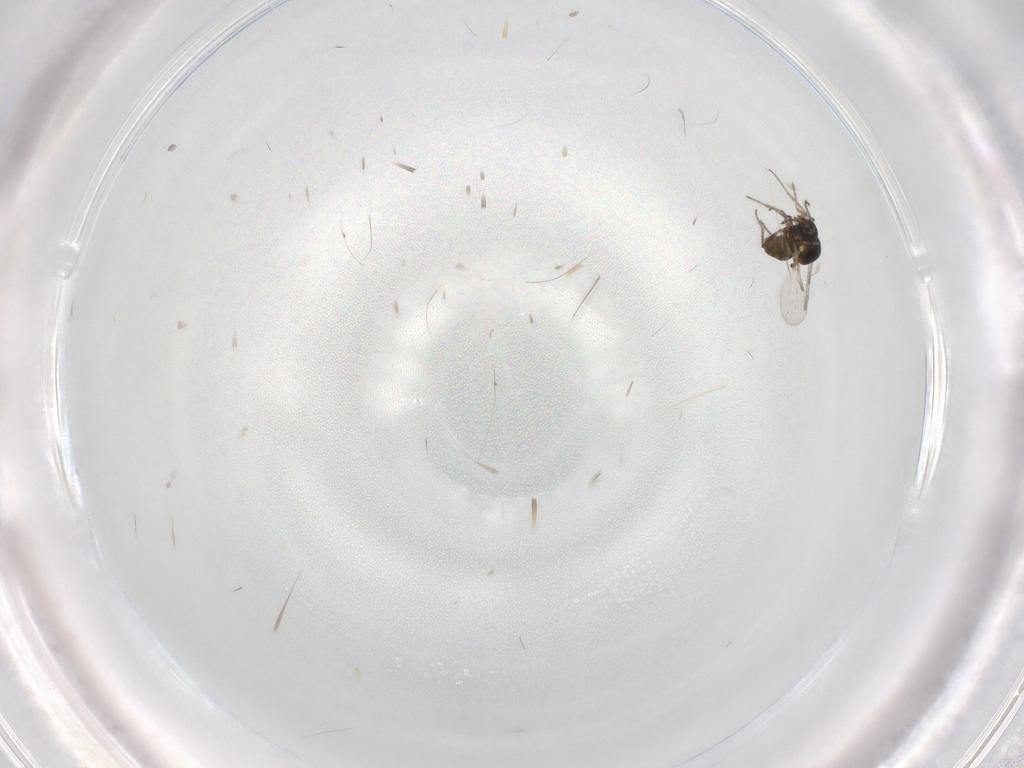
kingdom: Animalia
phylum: Arthropoda
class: Insecta
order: Diptera
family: Ceratopogonidae
